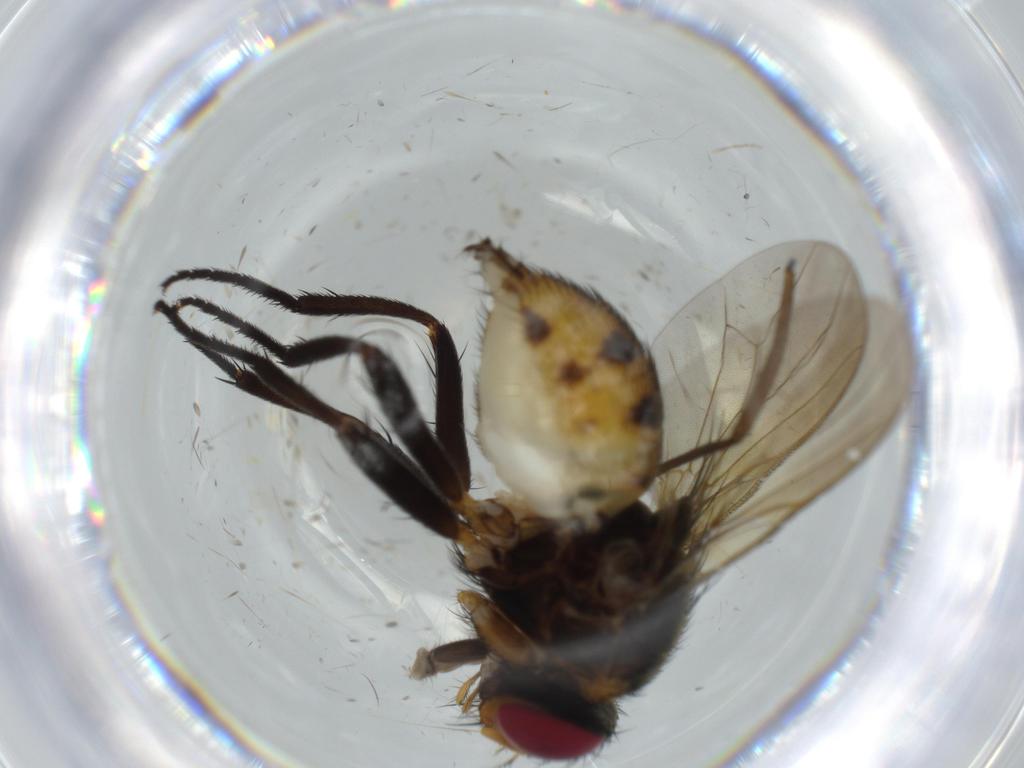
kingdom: Animalia
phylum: Arthropoda
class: Insecta
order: Diptera
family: Anthomyiidae
